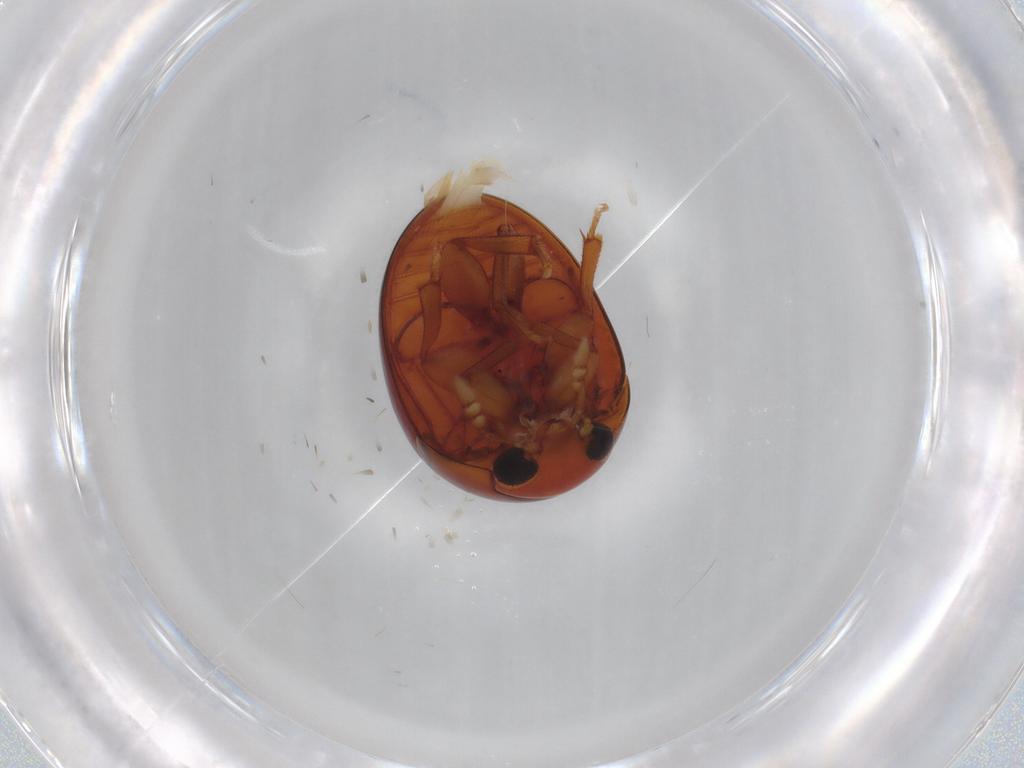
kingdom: Animalia
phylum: Arthropoda
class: Insecta
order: Coleoptera
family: Phalacridae
